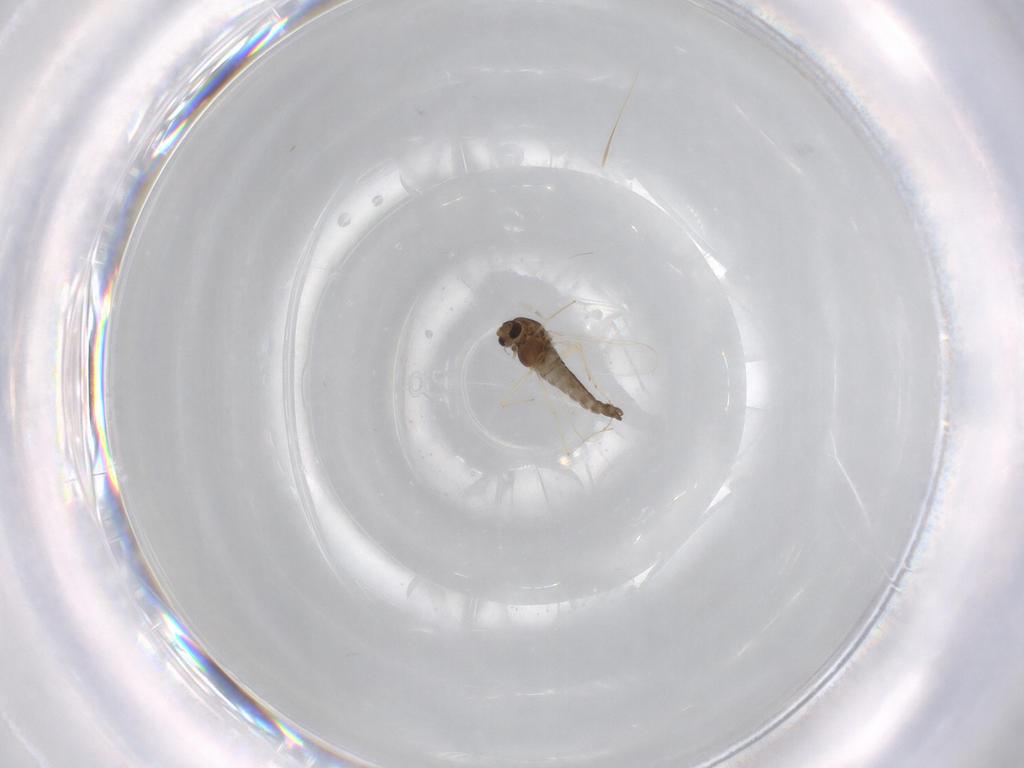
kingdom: Animalia
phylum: Arthropoda
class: Insecta
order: Diptera
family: Chironomidae
